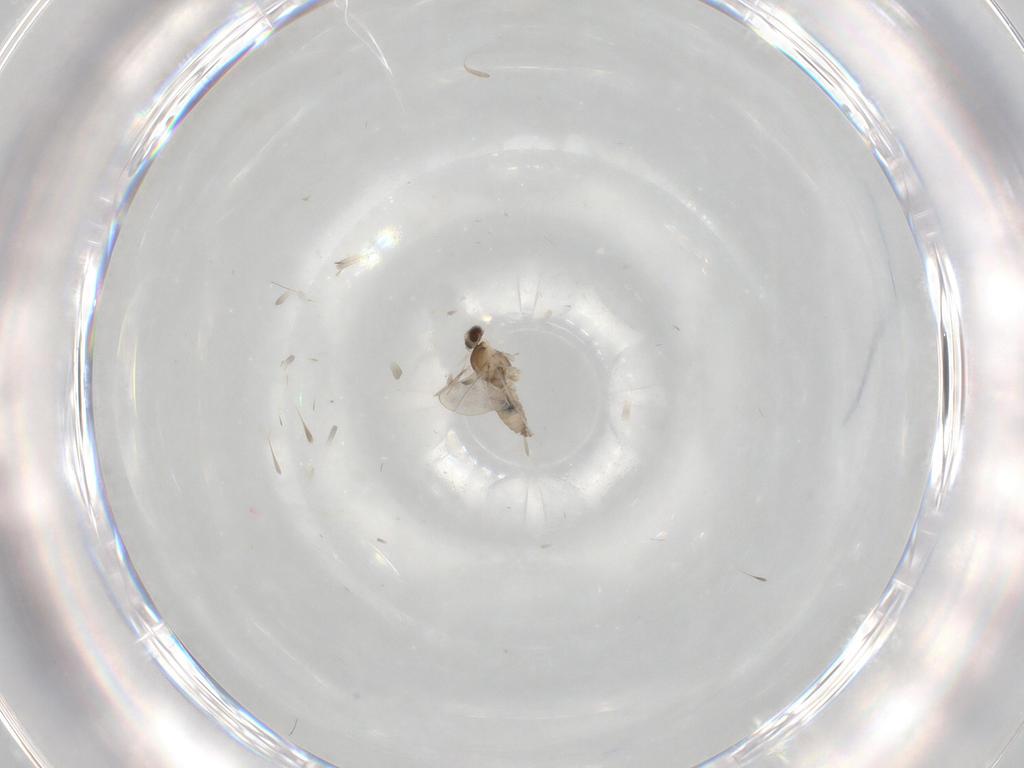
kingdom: Animalia
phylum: Arthropoda
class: Insecta
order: Diptera
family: Cecidomyiidae
